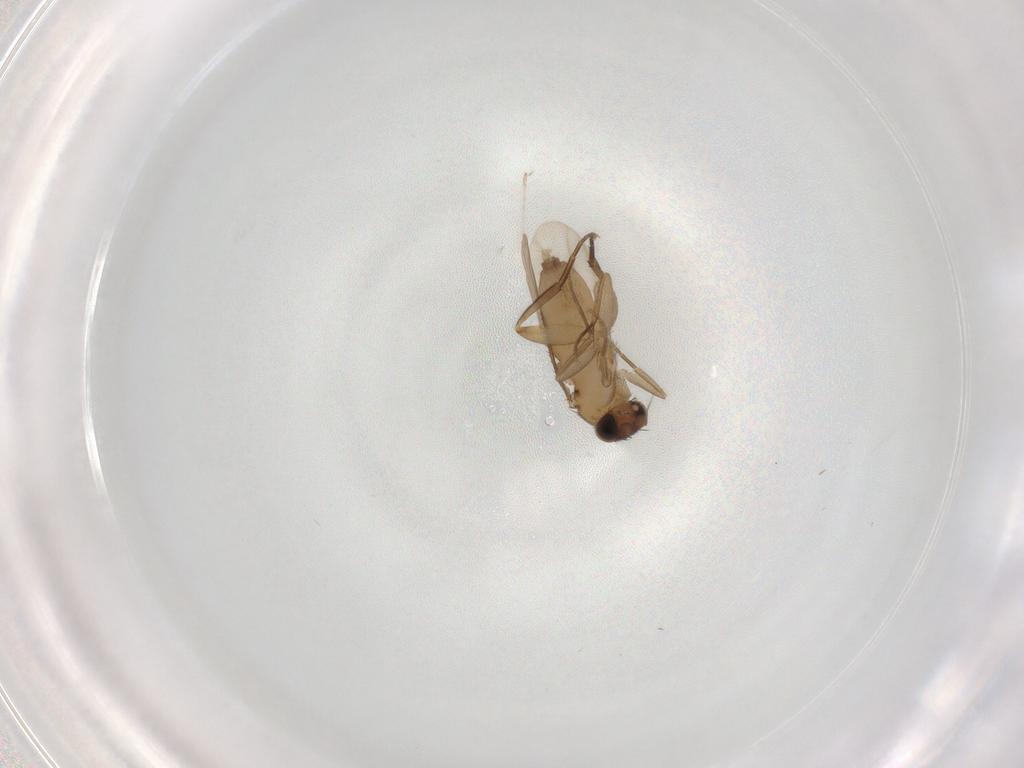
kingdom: Animalia
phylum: Arthropoda
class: Insecta
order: Diptera
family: Phoridae
